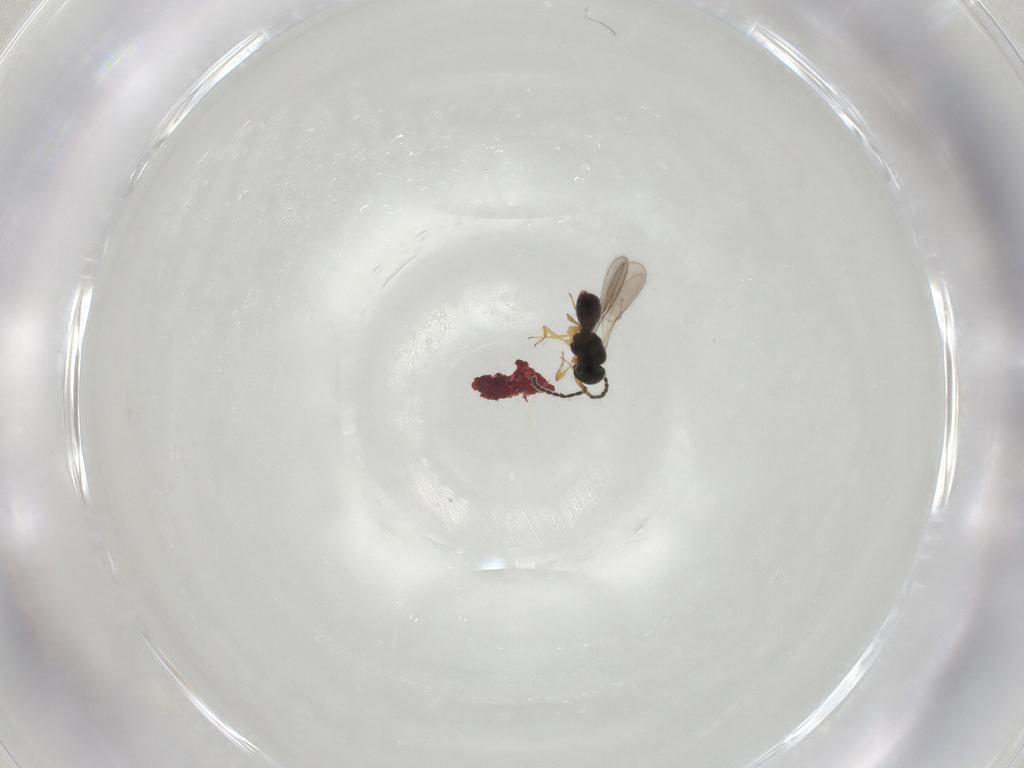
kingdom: Animalia
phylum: Arthropoda
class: Insecta
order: Hymenoptera
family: Scelionidae
